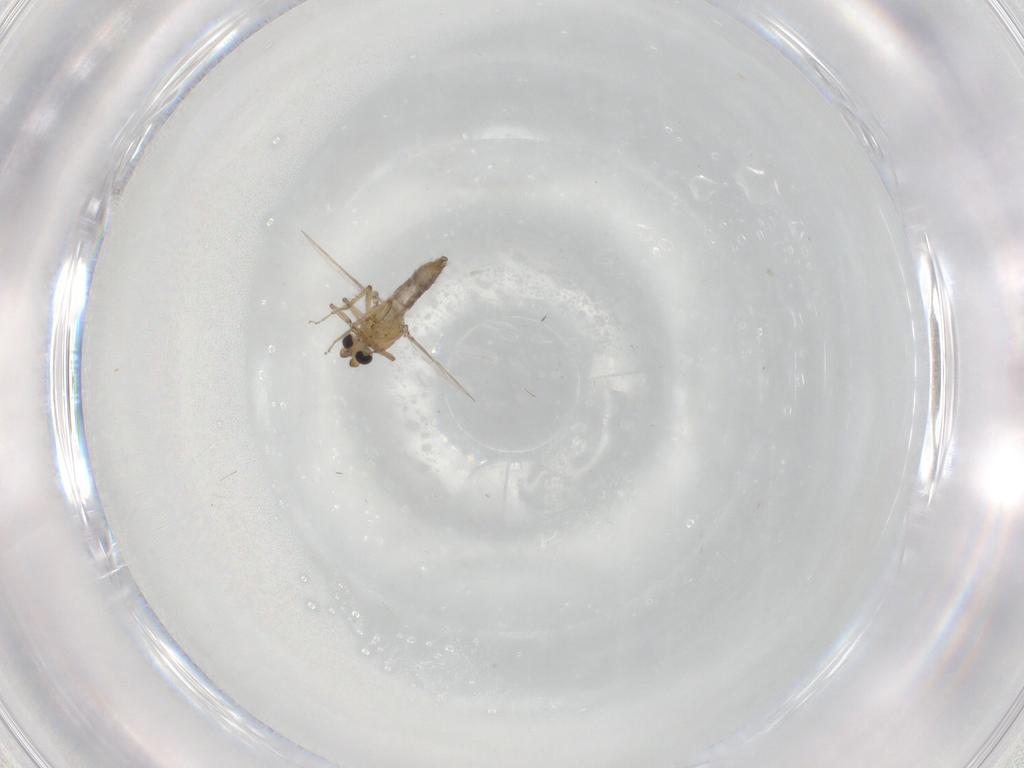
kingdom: Animalia
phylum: Arthropoda
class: Insecta
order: Diptera
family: Ceratopogonidae
